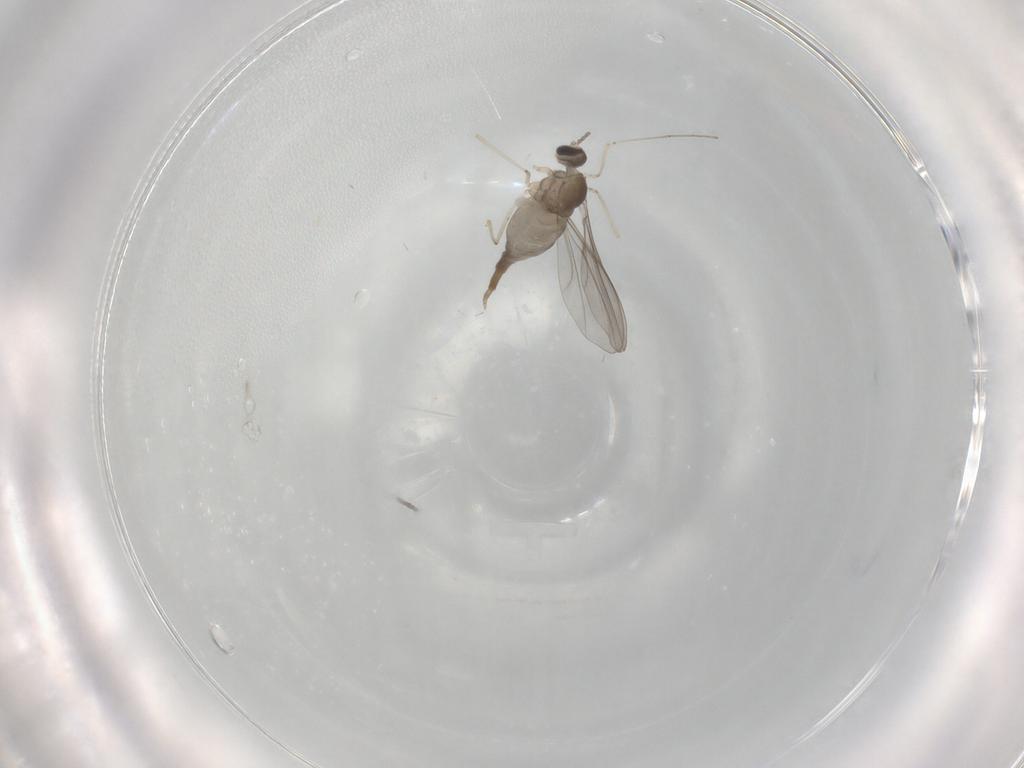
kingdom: Animalia
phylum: Arthropoda
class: Insecta
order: Diptera
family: Cecidomyiidae
